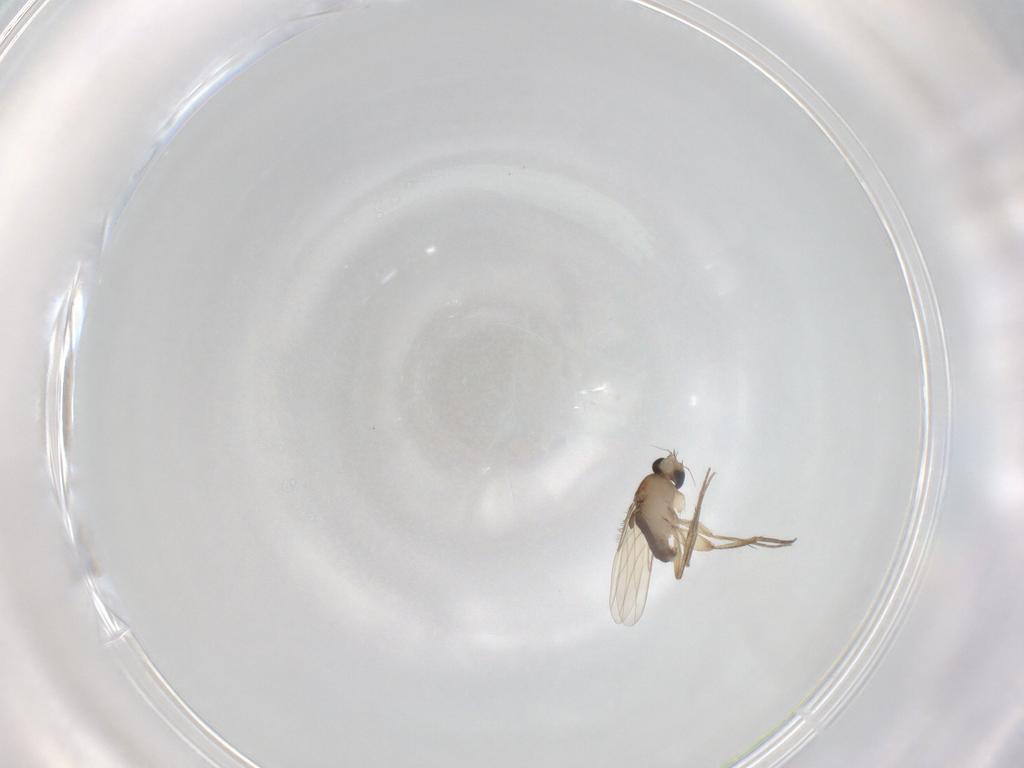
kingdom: Animalia
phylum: Arthropoda
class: Insecta
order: Diptera
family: Phoridae
